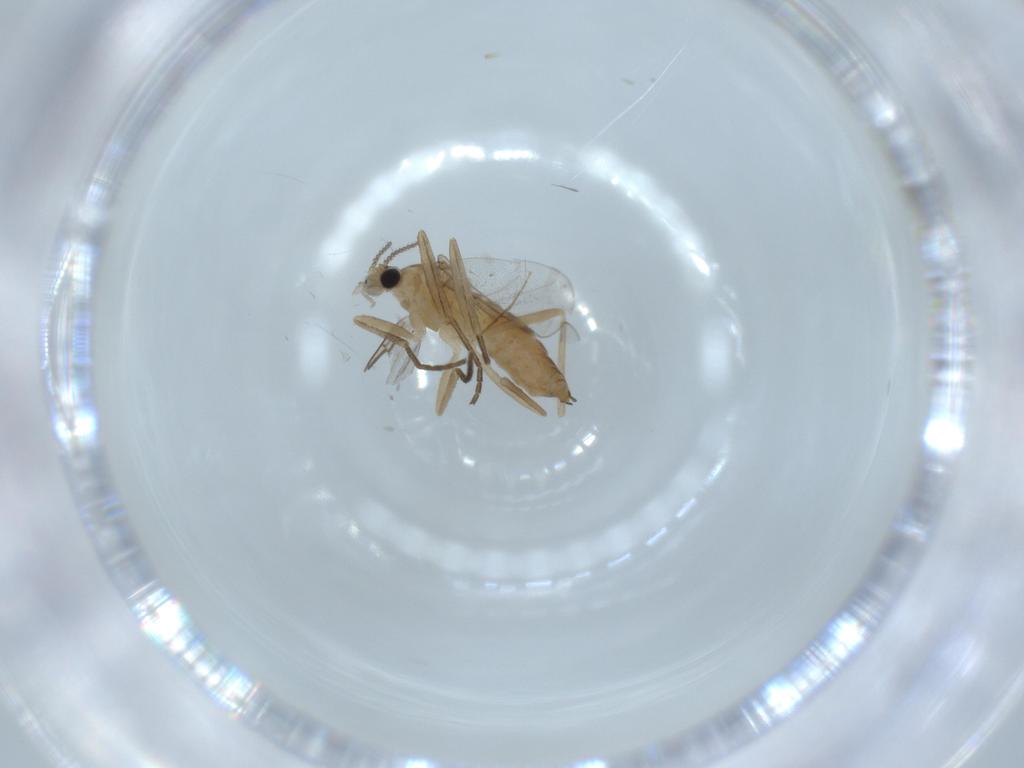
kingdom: Animalia
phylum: Arthropoda
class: Insecta
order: Diptera
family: Cecidomyiidae
